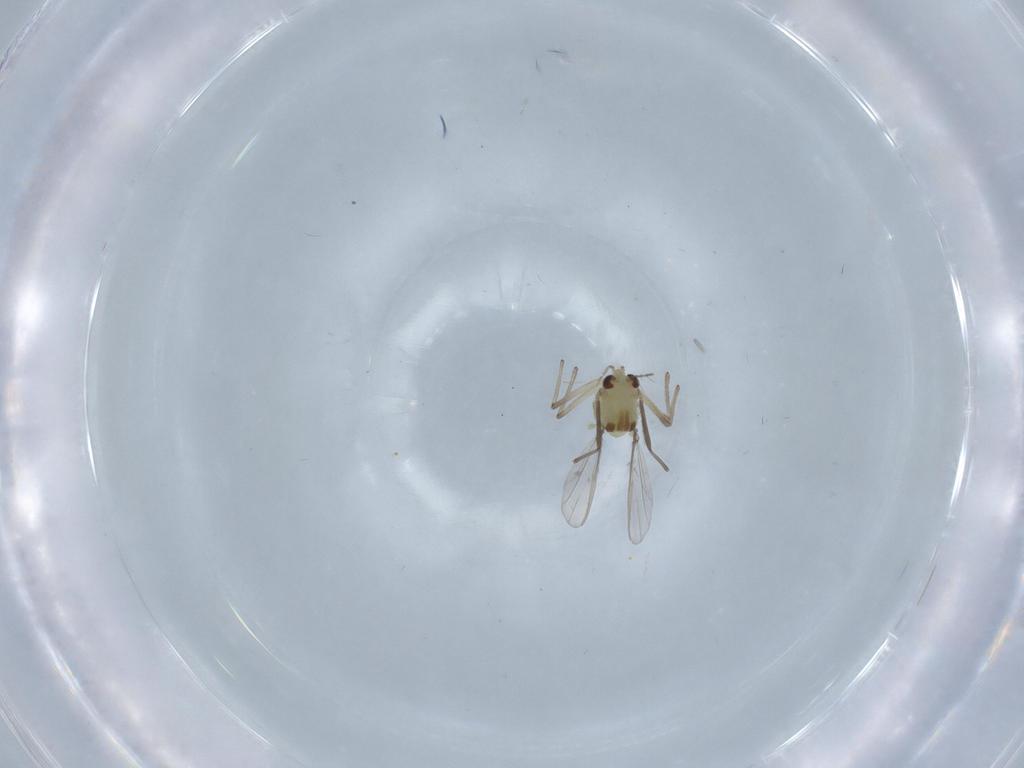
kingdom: Animalia
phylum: Arthropoda
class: Insecta
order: Diptera
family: Chironomidae
